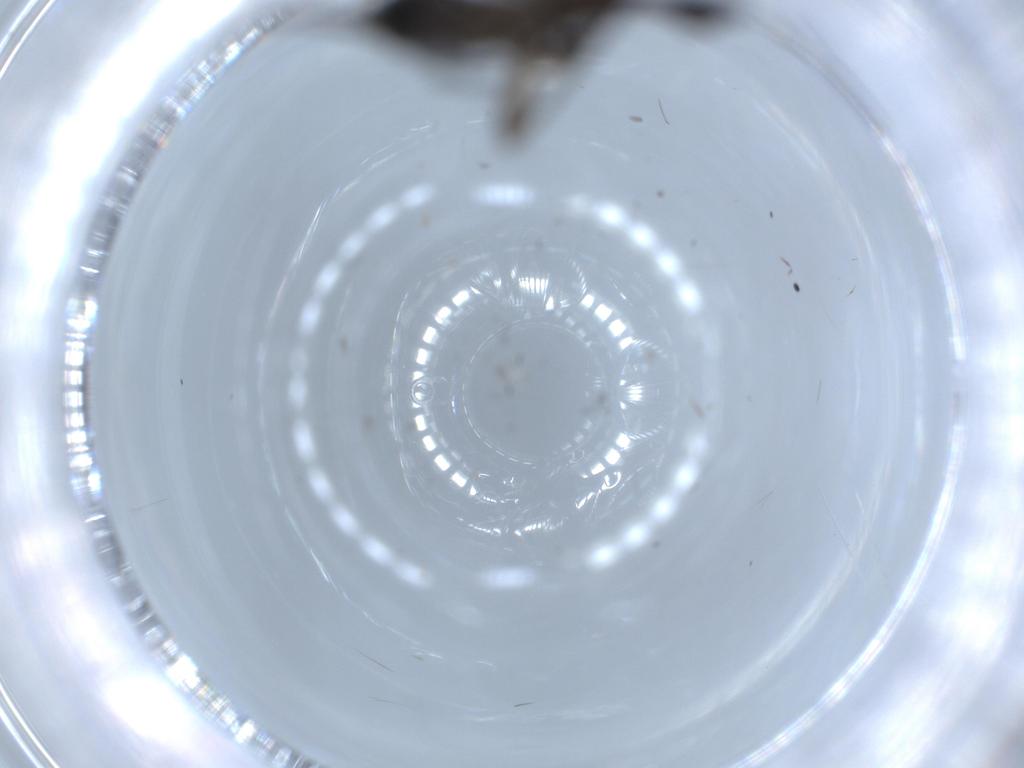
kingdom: Animalia
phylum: Arthropoda
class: Insecta
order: Diptera
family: Sciaridae
